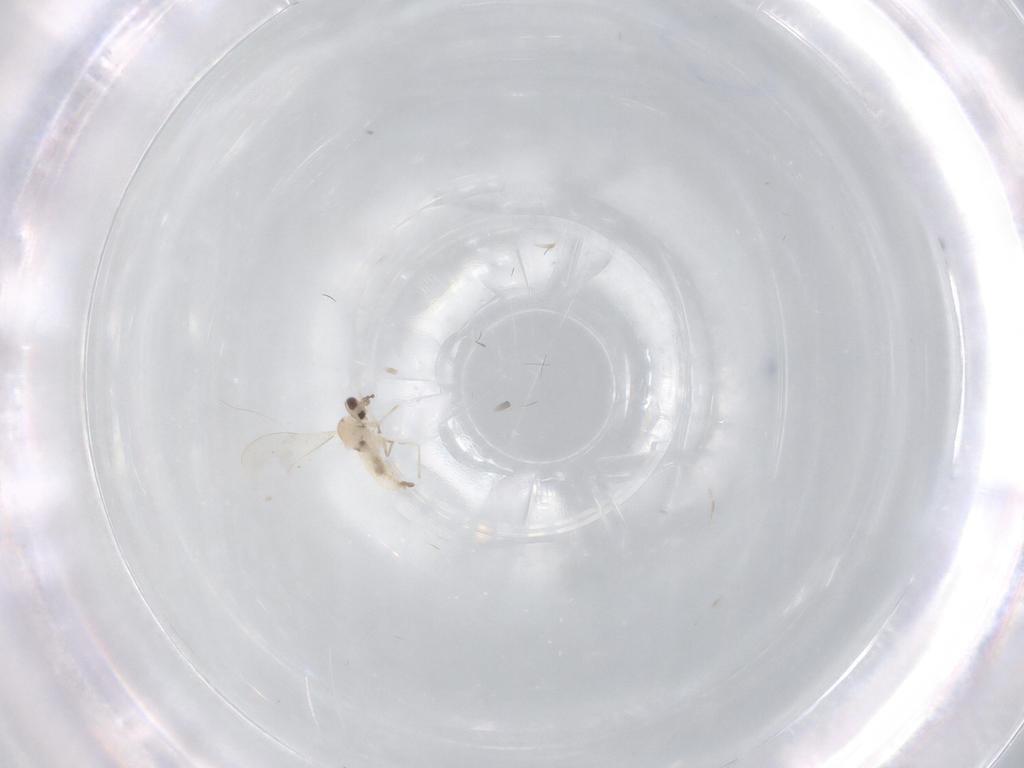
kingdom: Animalia
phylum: Arthropoda
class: Insecta
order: Diptera
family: Cecidomyiidae
